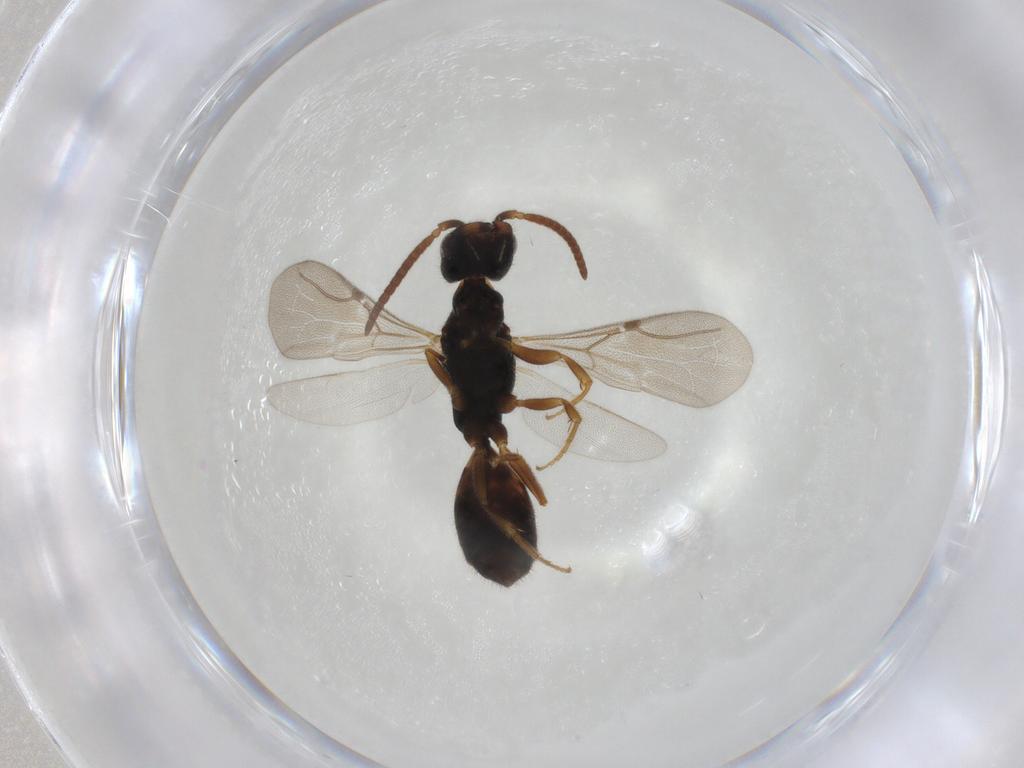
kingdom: Animalia
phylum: Arthropoda
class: Insecta
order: Hymenoptera
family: Bethylidae
